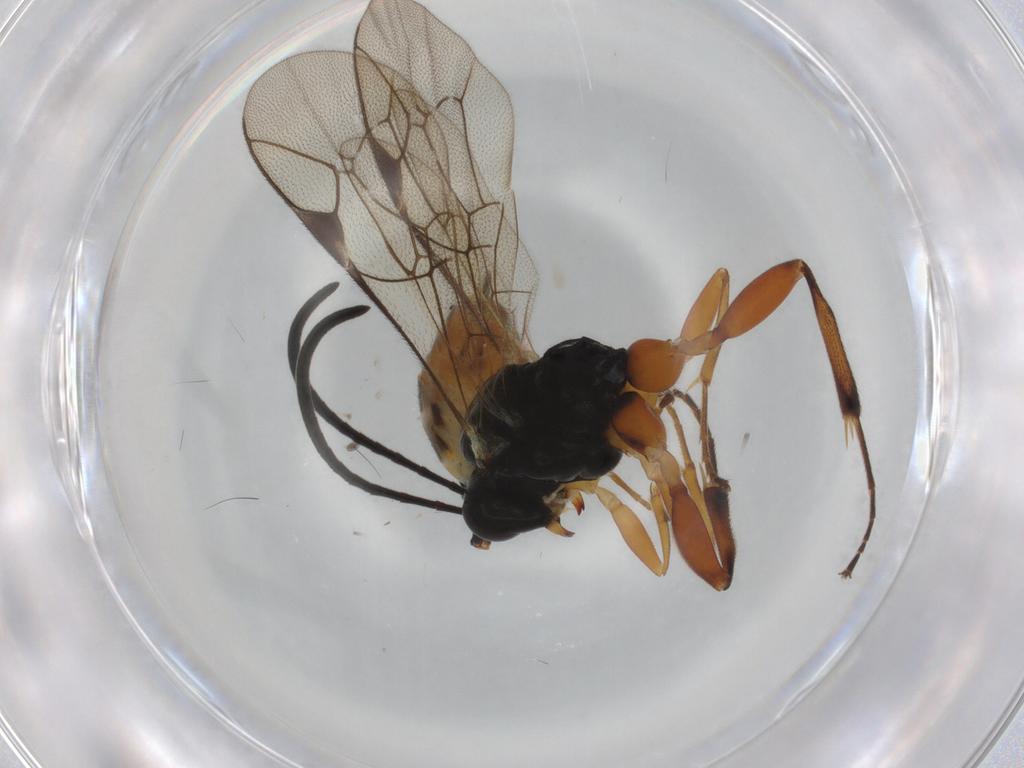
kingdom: Animalia
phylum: Arthropoda
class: Insecta
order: Hymenoptera
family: Ichneumonidae
